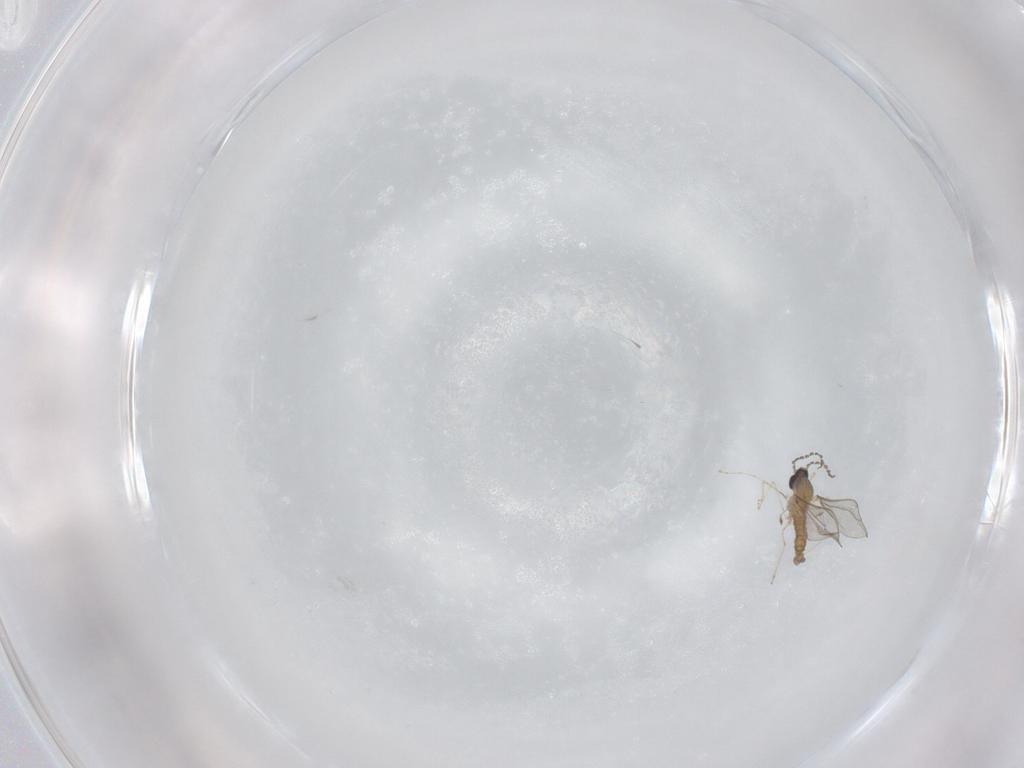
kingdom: Animalia
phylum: Arthropoda
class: Insecta
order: Diptera
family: Cecidomyiidae
